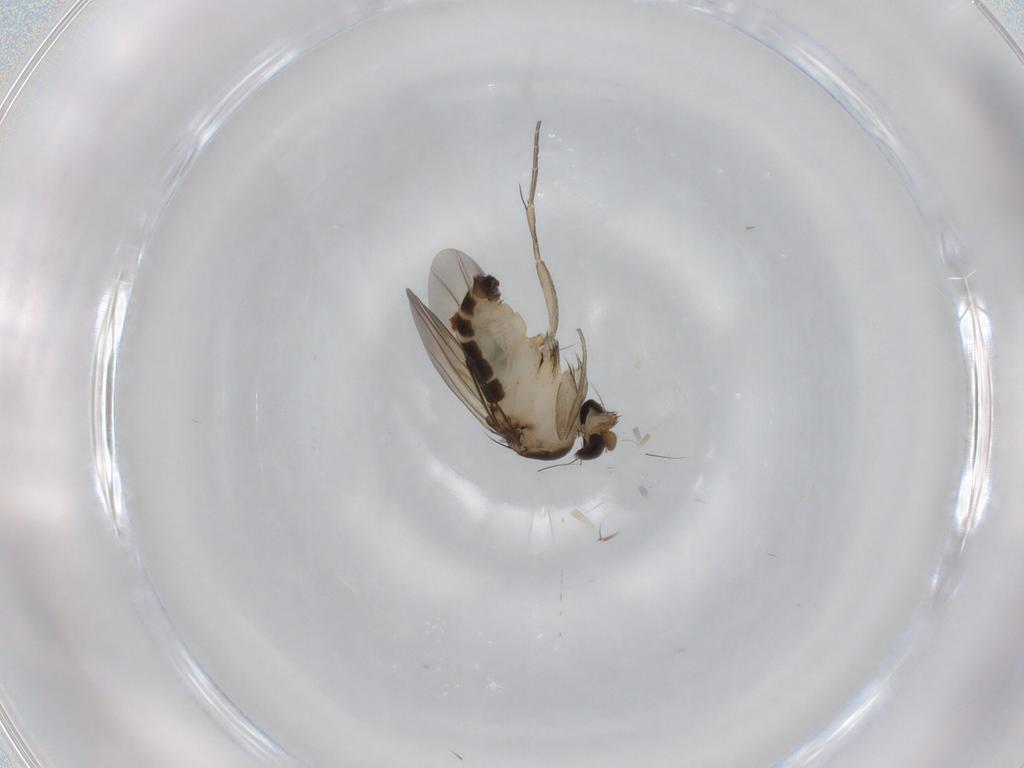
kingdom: Animalia
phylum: Arthropoda
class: Insecta
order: Diptera
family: Phoridae
